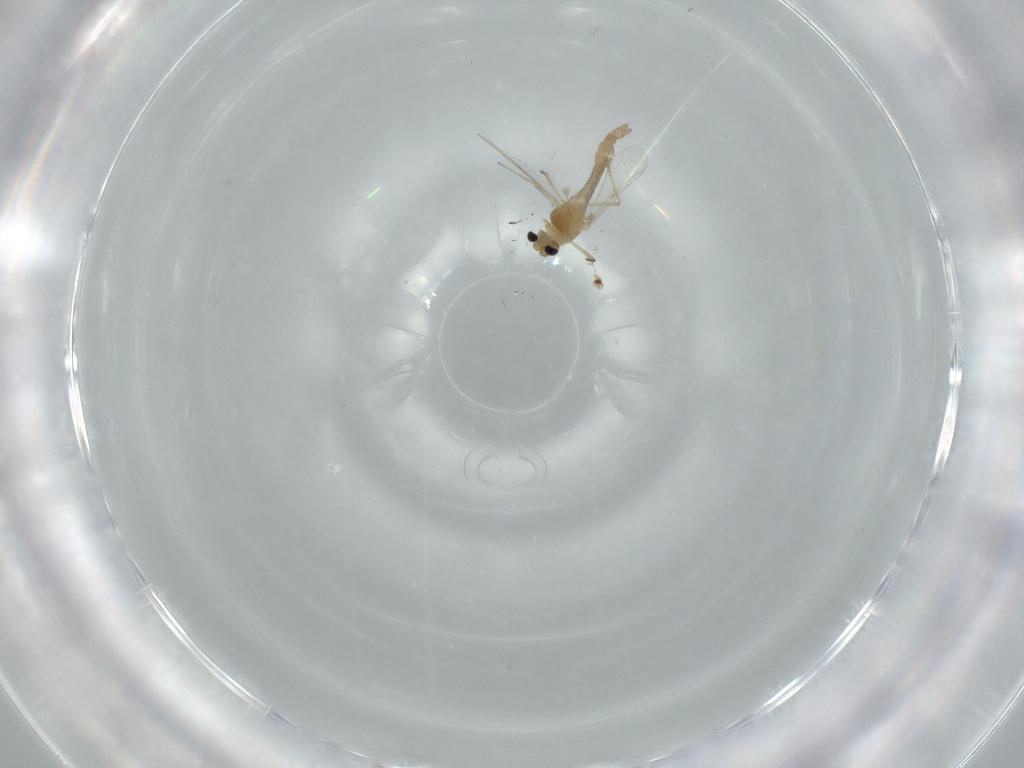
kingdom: Animalia
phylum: Arthropoda
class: Insecta
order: Diptera
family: Chironomidae
